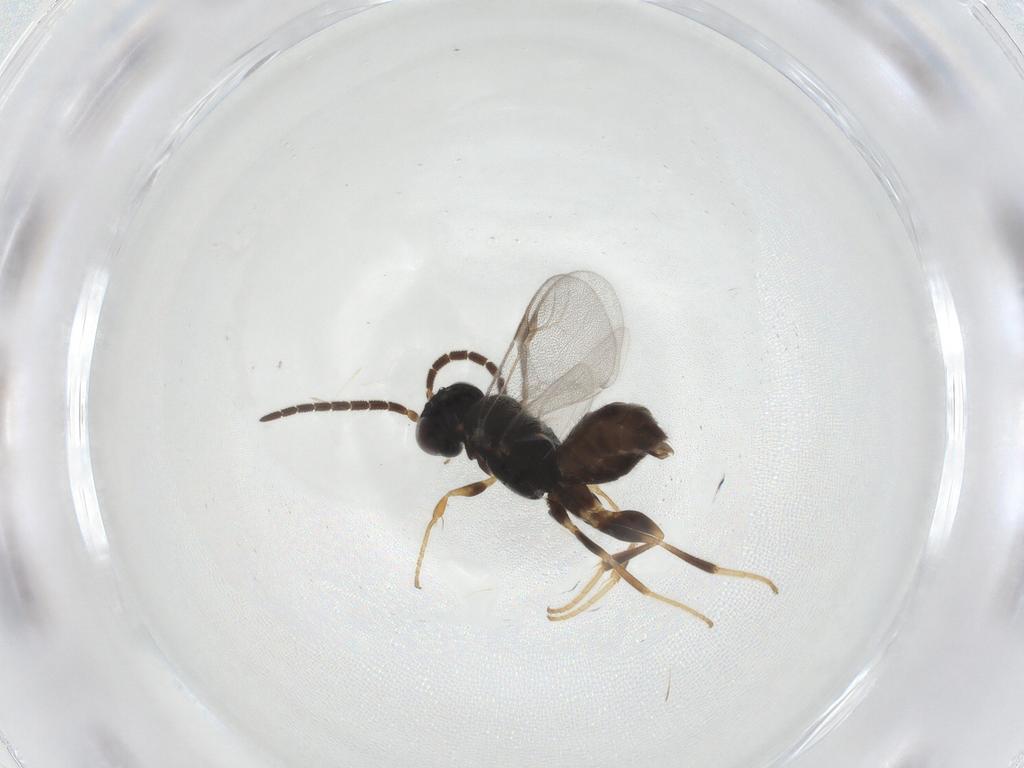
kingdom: Animalia
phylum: Arthropoda
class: Insecta
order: Hymenoptera
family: Dryinidae
